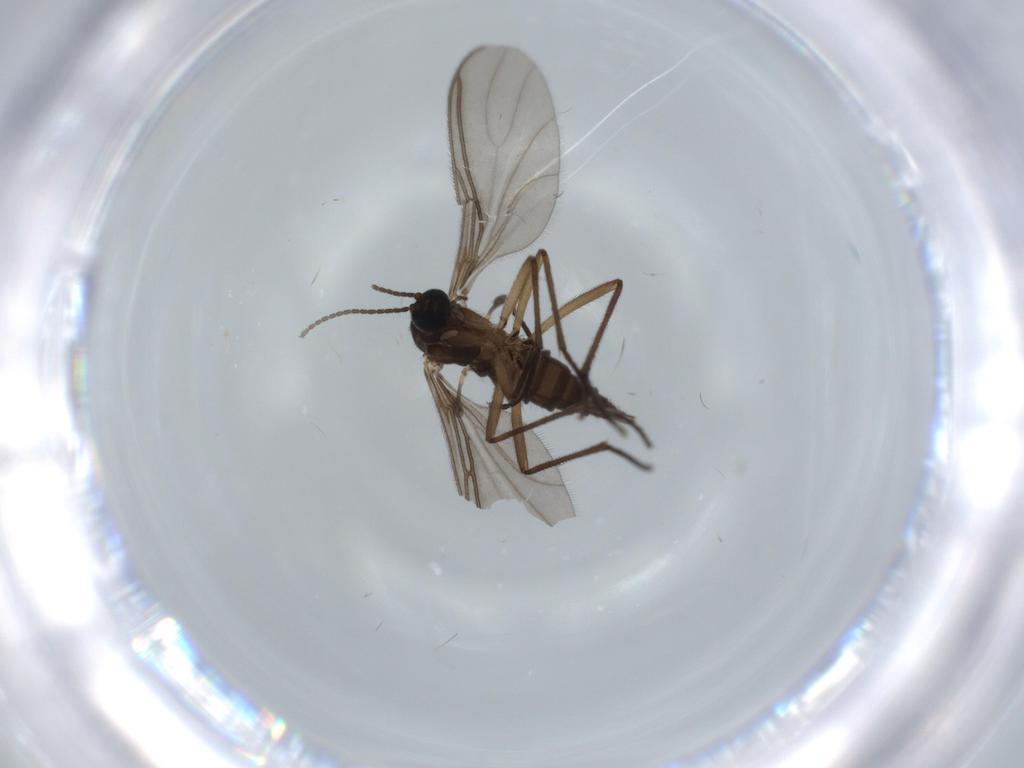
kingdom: Animalia
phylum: Arthropoda
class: Insecta
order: Diptera
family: Sciaridae
